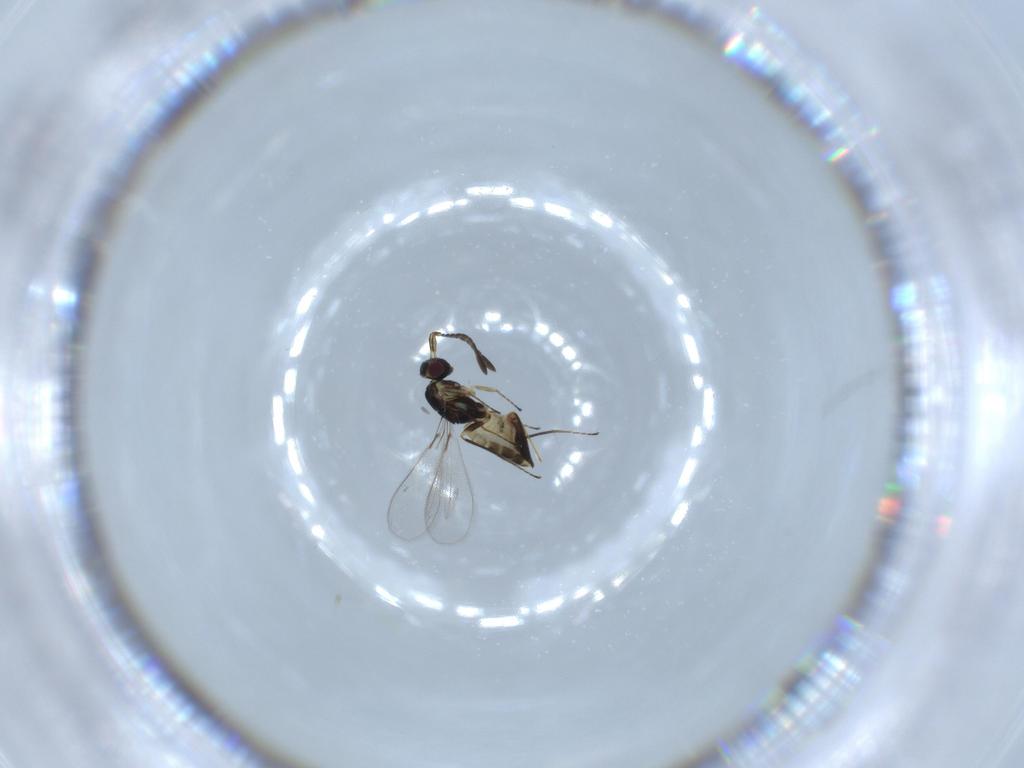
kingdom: Animalia
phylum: Arthropoda
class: Insecta
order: Hymenoptera
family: Mymaridae
